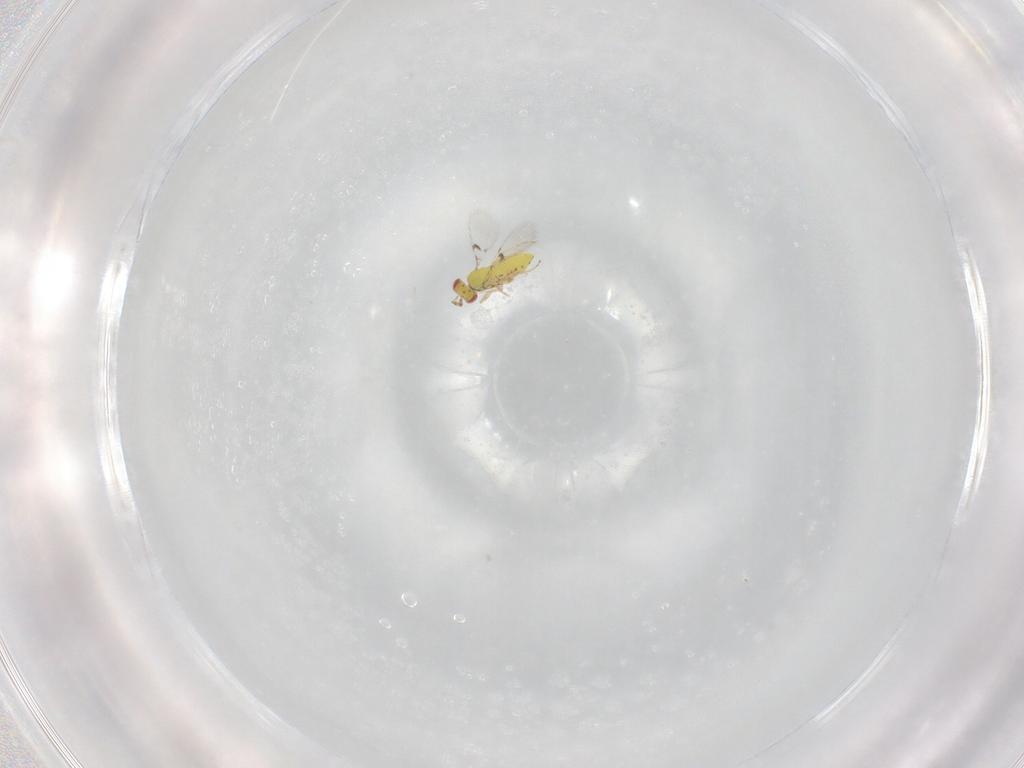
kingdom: Animalia
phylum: Arthropoda
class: Insecta
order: Hymenoptera
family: Trichogrammatidae
